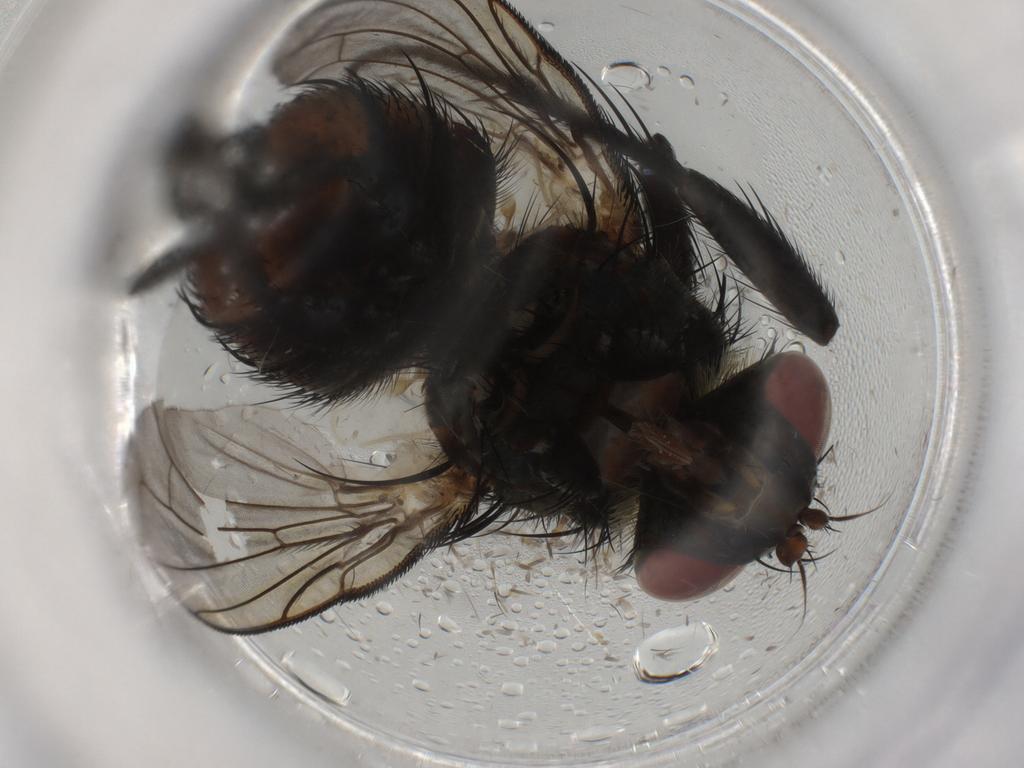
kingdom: Animalia
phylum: Arthropoda
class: Insecta
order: Diptera
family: Tachinidae
